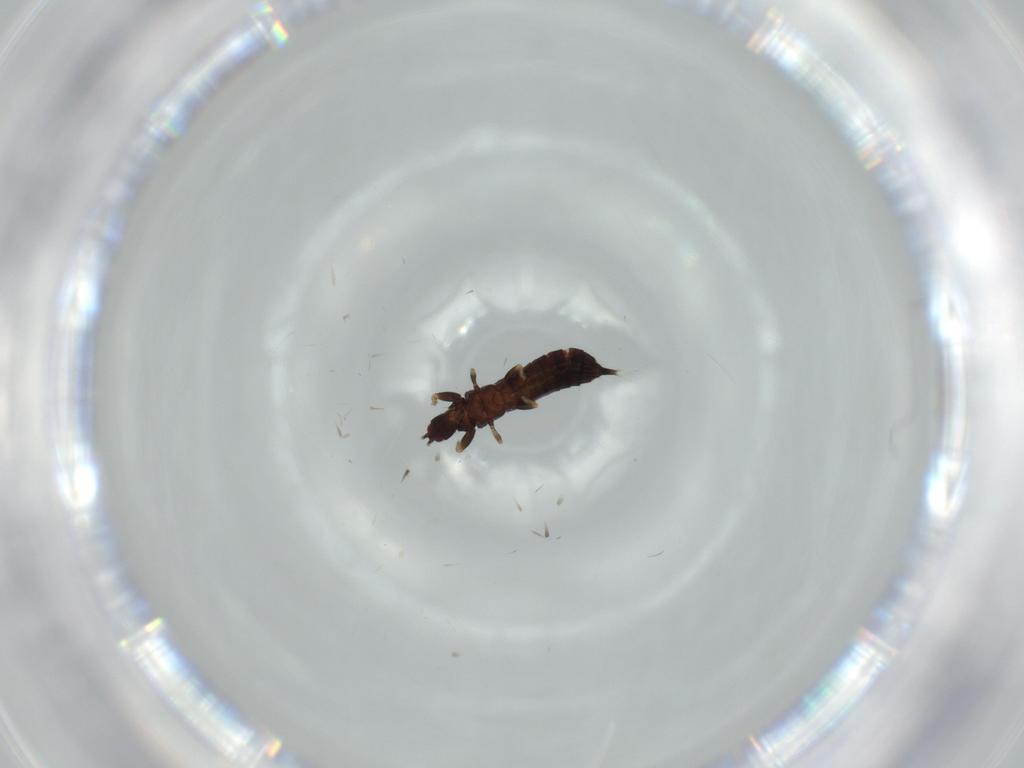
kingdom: Animalia
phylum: Arthropoda
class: Insecta
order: Thysanoptera
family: Phlaeothripidae
